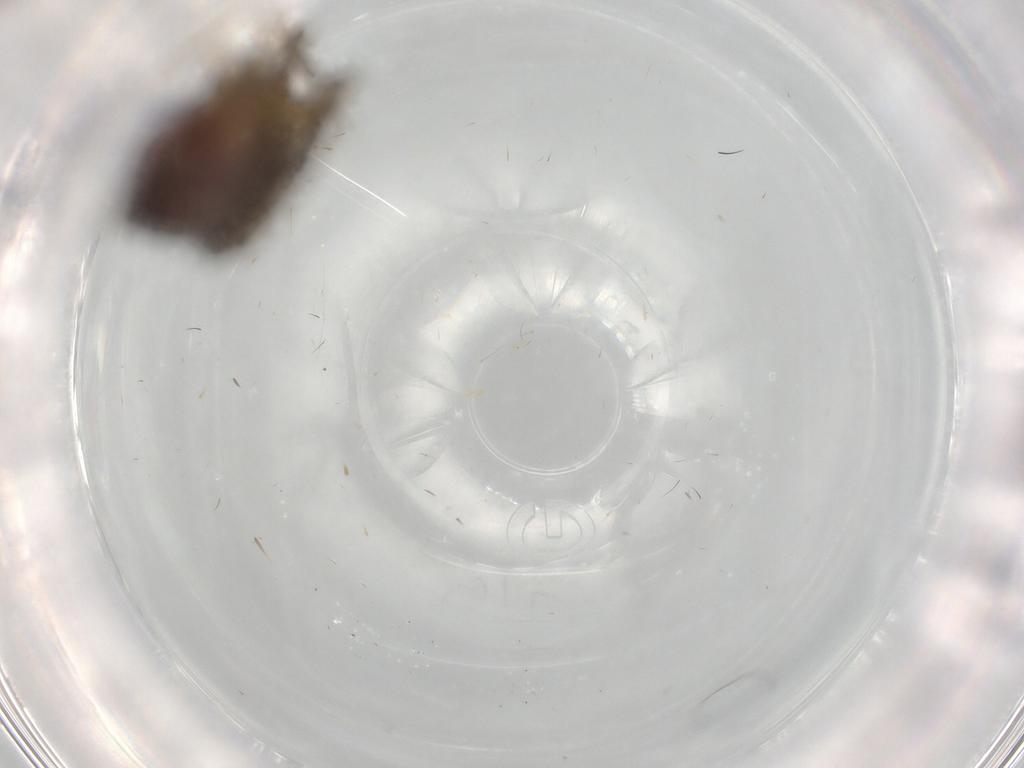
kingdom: Animalia
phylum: Arthropoda
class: Insecta
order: Diptera
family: Drosophilidae
